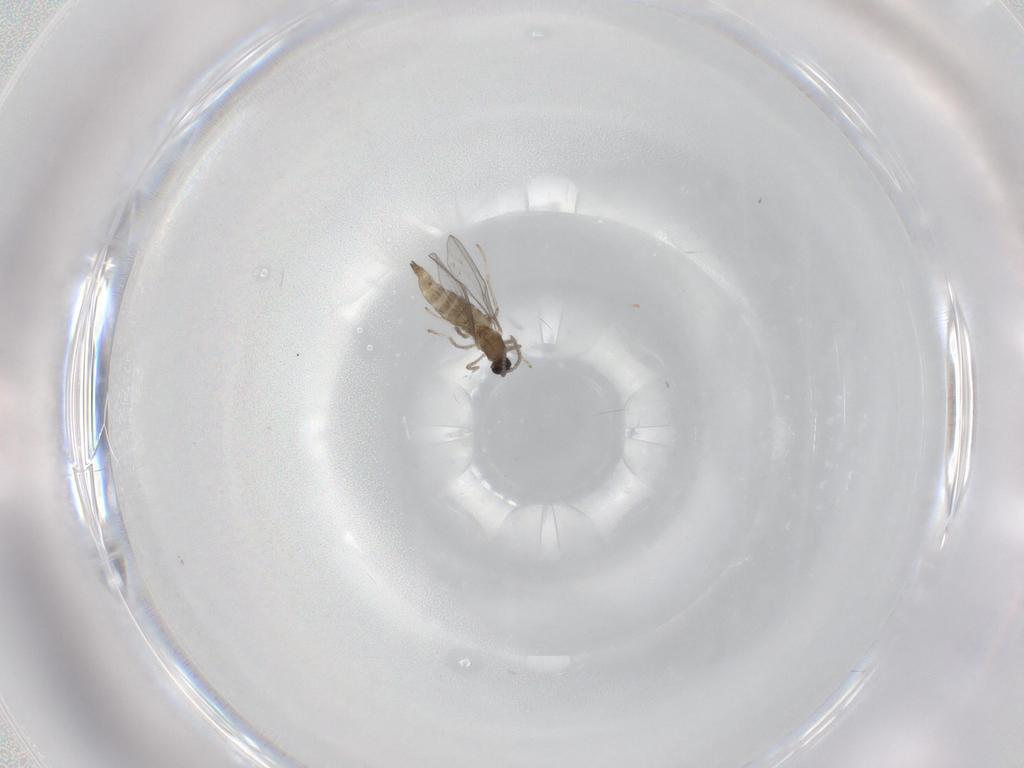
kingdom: Animalia
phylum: Arthropoda
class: Insecta
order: Diptera
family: Cecidomyiidae
